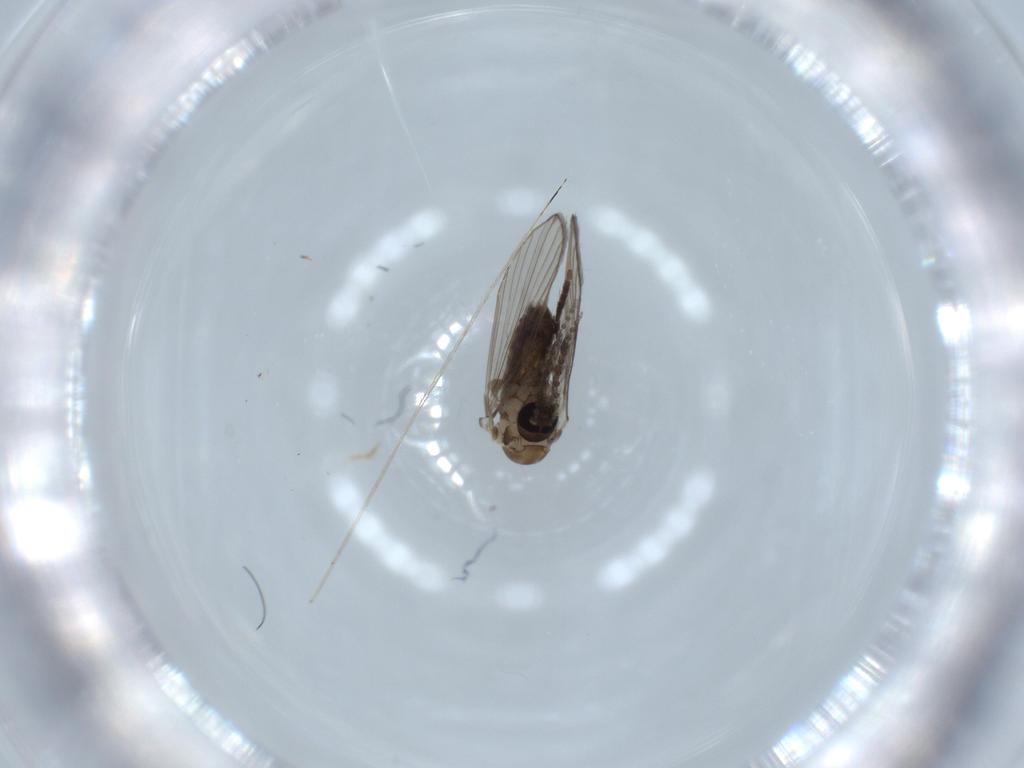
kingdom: Animalia
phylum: Arthropoda
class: Insecta
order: Diptera
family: Psychodidae
